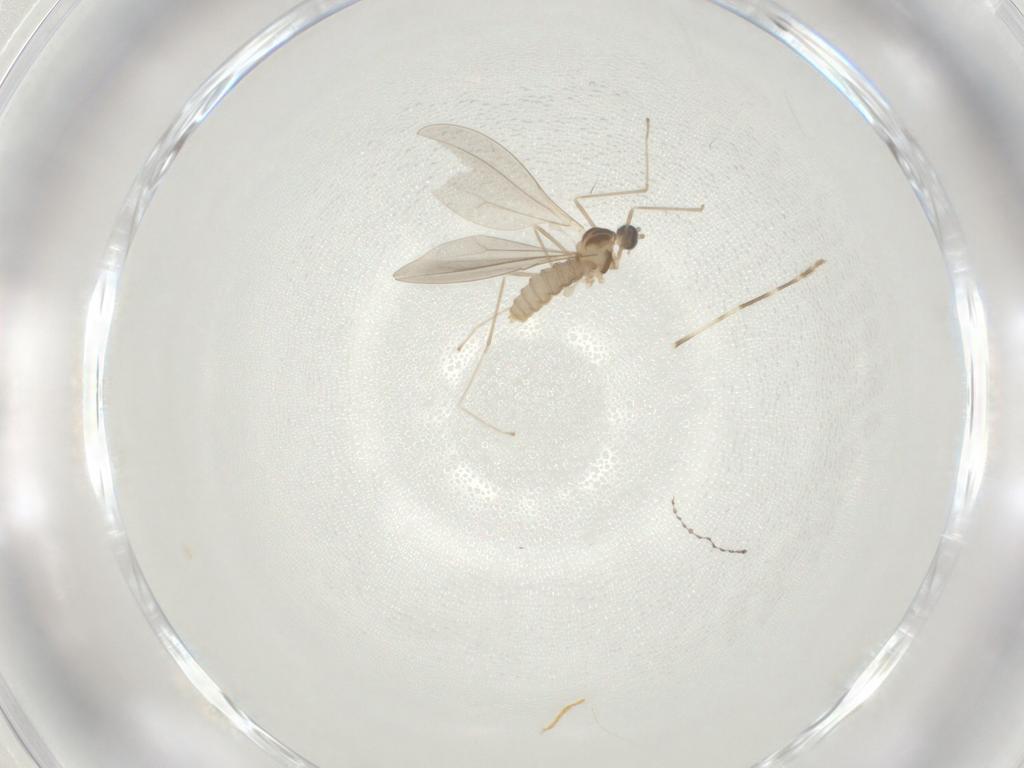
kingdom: Animalia
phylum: Arthropoda
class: Insecta
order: Diptera
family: Cecidomyiidae
